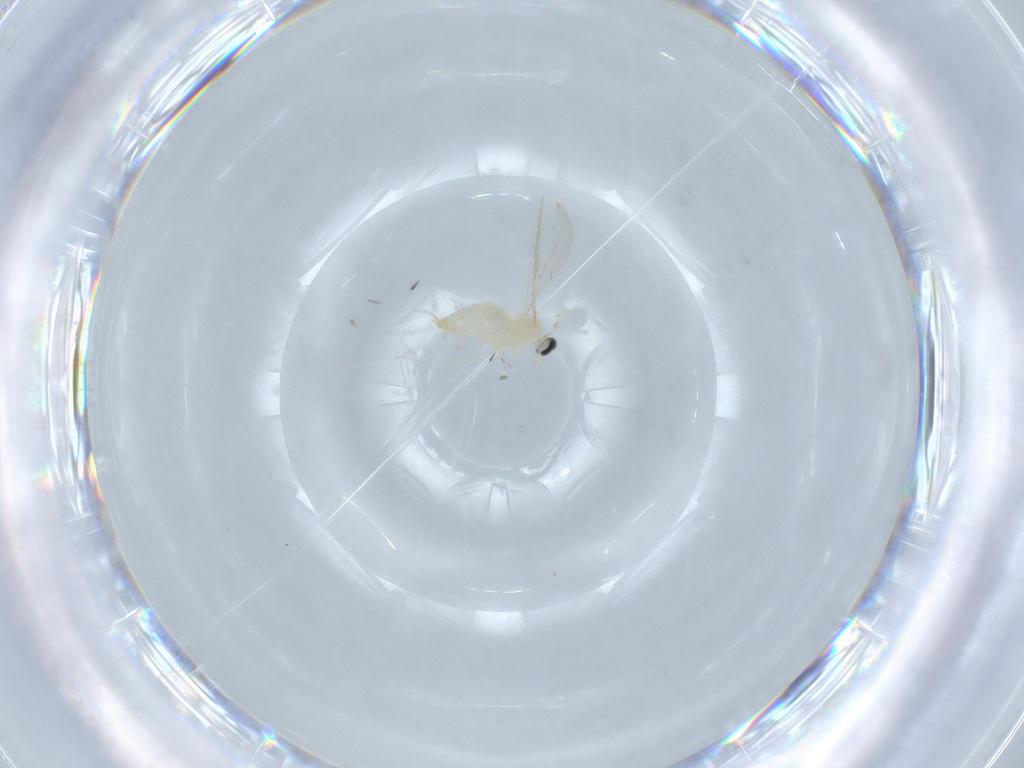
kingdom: Animalia
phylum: Arthropoda
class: Insecta
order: Diptera
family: Cecidomyiidae
